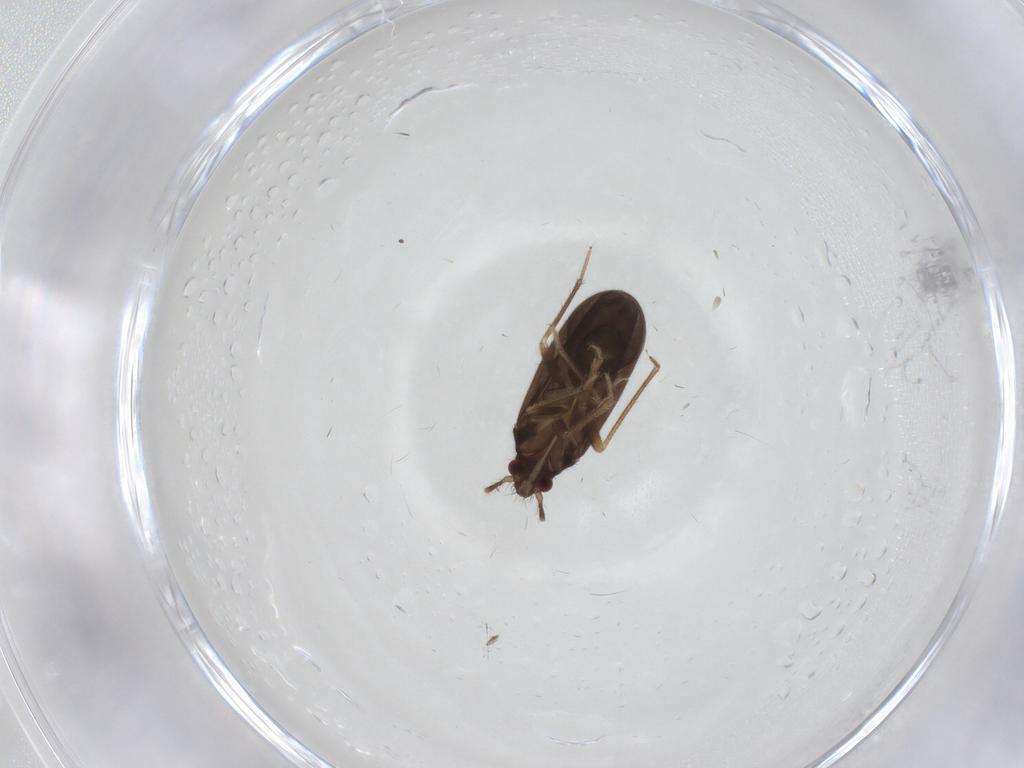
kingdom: Animalia
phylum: Arthropoda
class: Insecta
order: Hemiptera
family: Ceratocombidae
